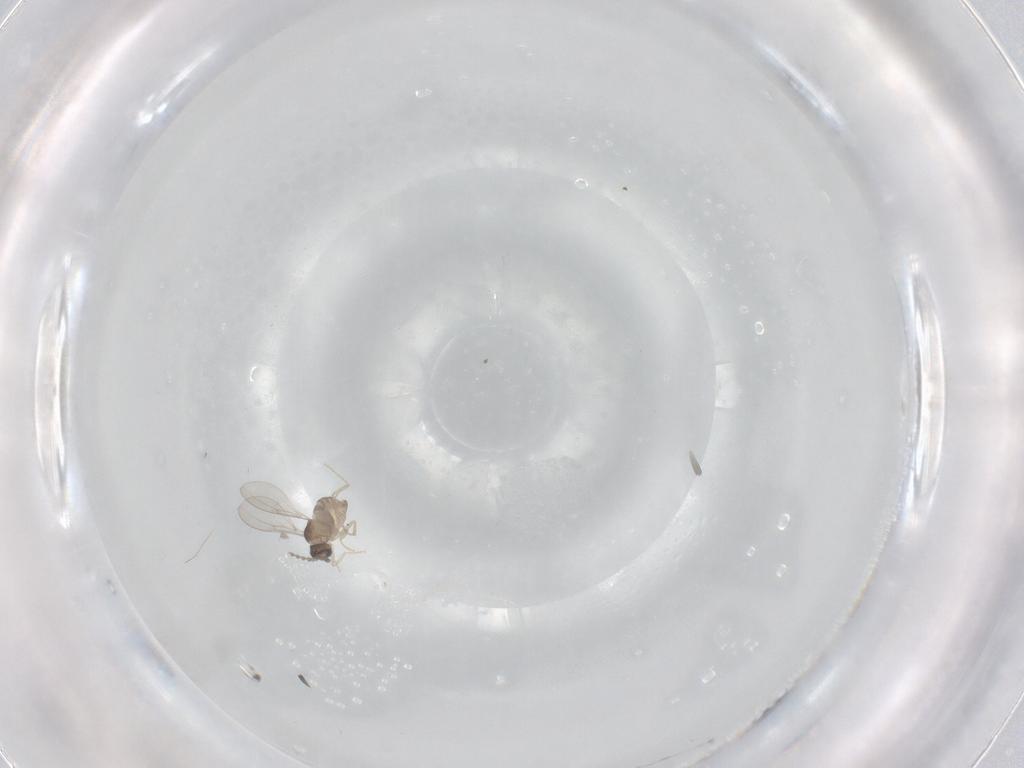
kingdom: Animalia
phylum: Arthropoda
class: Insecta
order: Diptera
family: Cecidomyiidae
